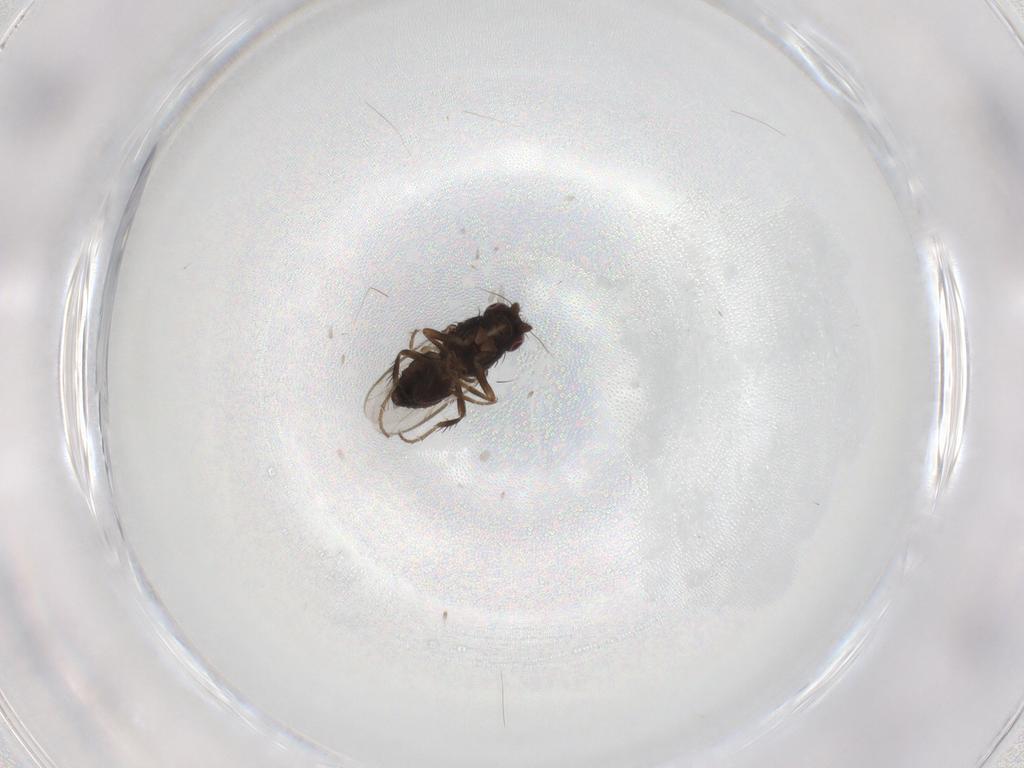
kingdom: Animalia
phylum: Arthropoda
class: Insecta
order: Diptera
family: Sphaeroceridae
